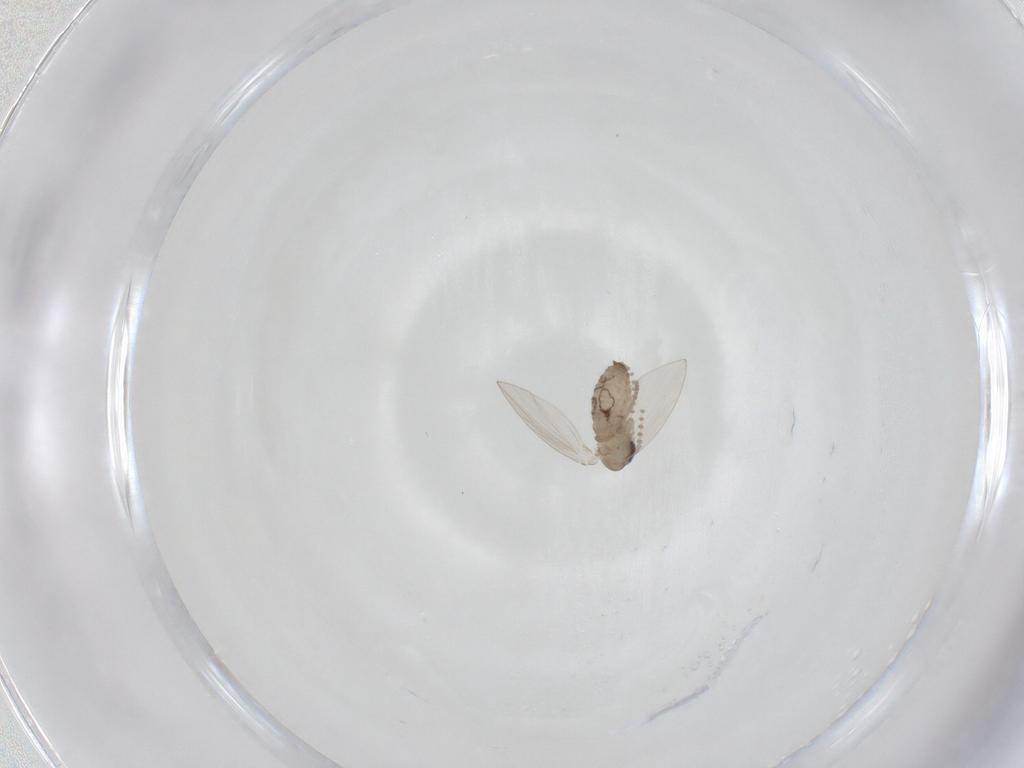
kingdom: Animalia
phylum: Arthropoda
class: Insecta
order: Diptera
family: Psychodidae
